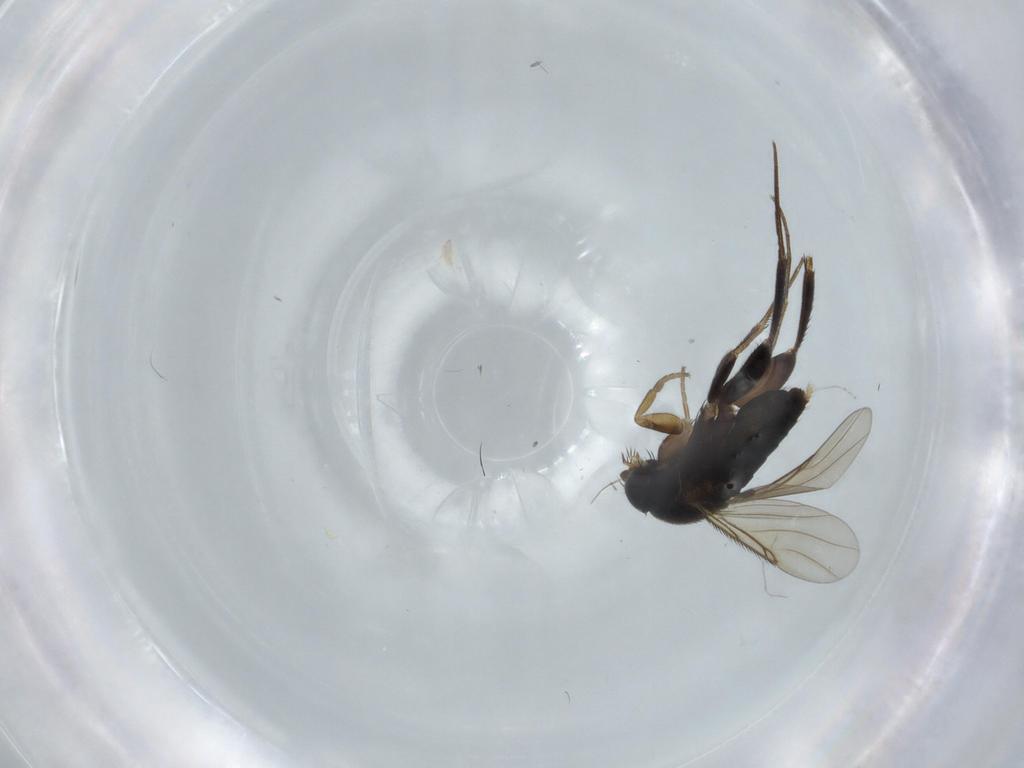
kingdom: Animalia
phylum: Arthropoda
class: Insecta
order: Diptera
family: Phoridae
